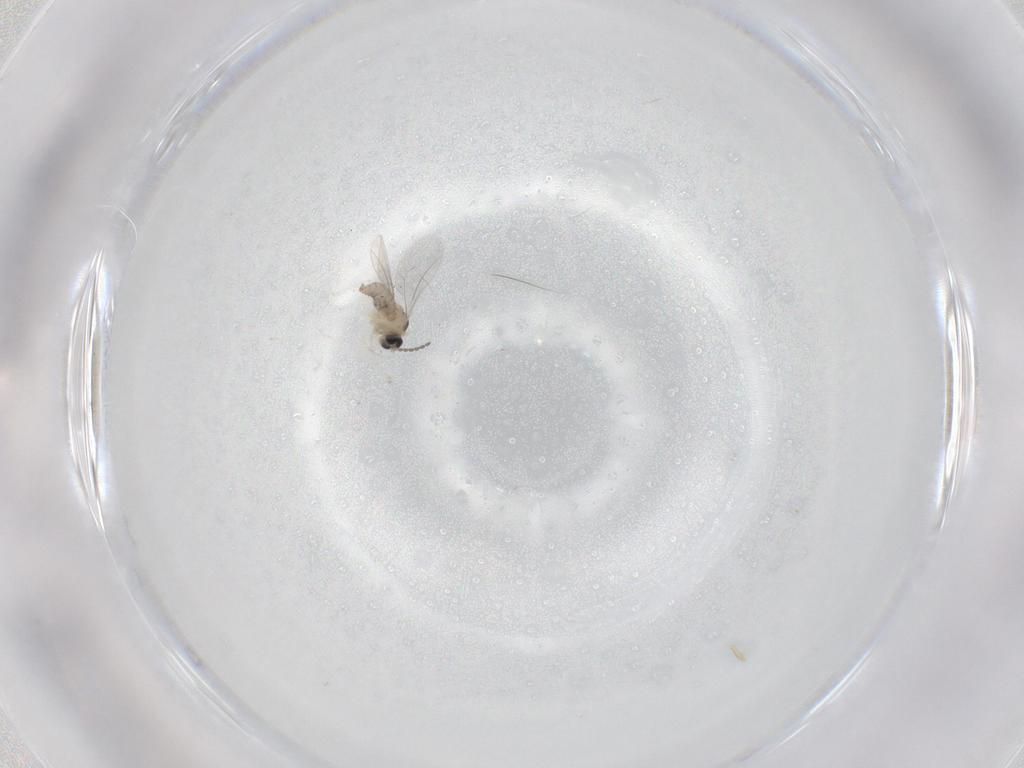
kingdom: Animalia
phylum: Arthropoda
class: Insecta
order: Diptera
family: Cecidomyiidae
